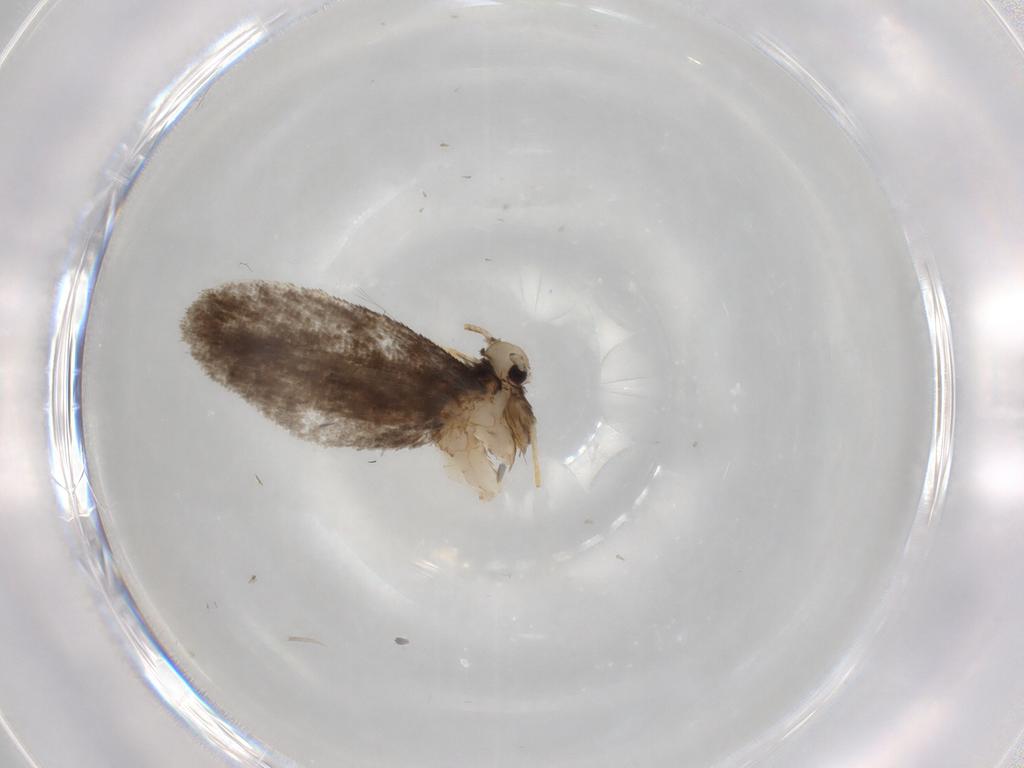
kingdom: Animalia
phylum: Arthropoda
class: Insecta
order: Lepidoptera
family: Psychidae
